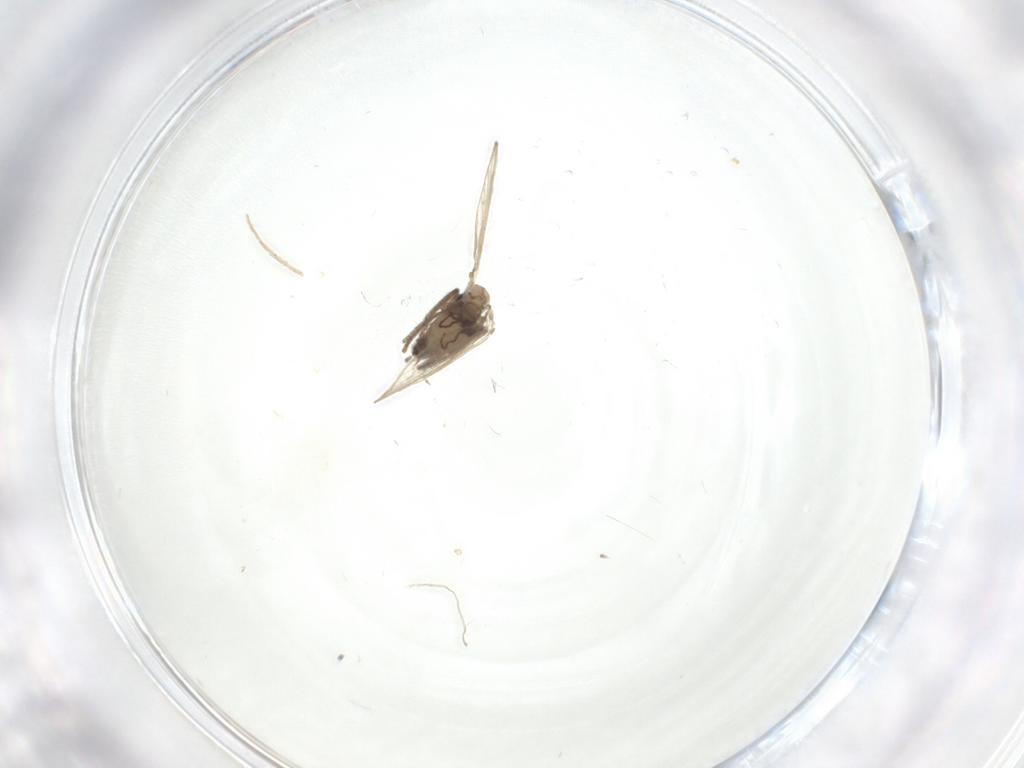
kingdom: Animalia
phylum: Arthropoda
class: Insecta
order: Diptera
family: Psychodidae
